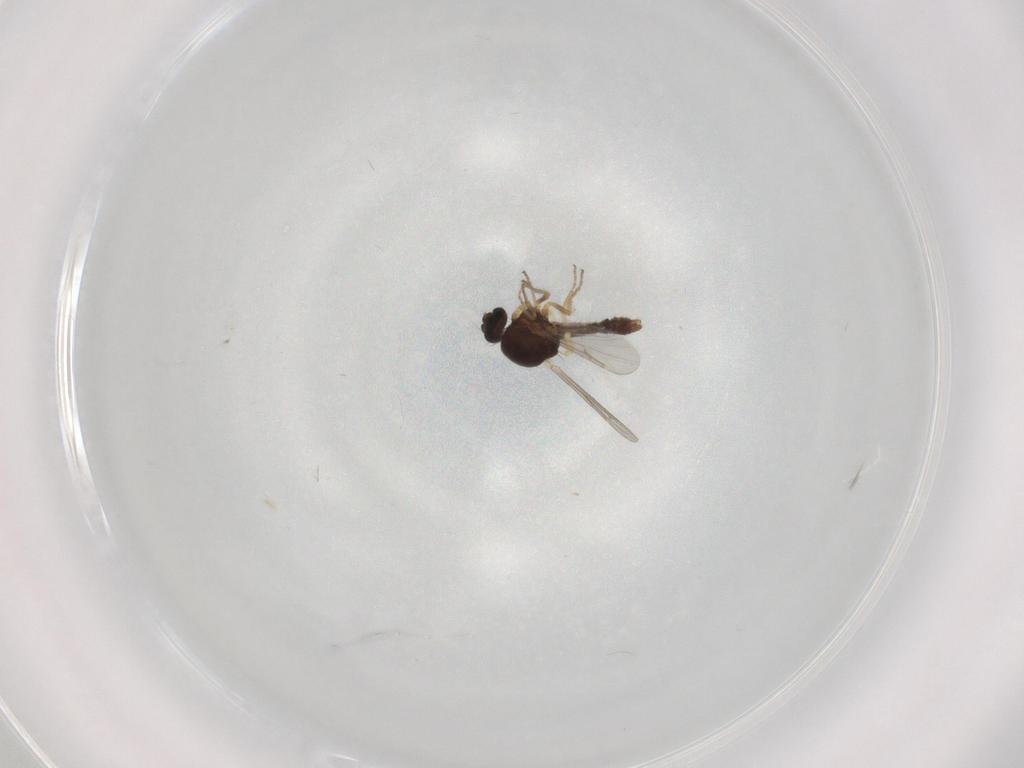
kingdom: Animalia
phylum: Arthropoda
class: Insecta
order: Diptera
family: Ceratopogonidae
